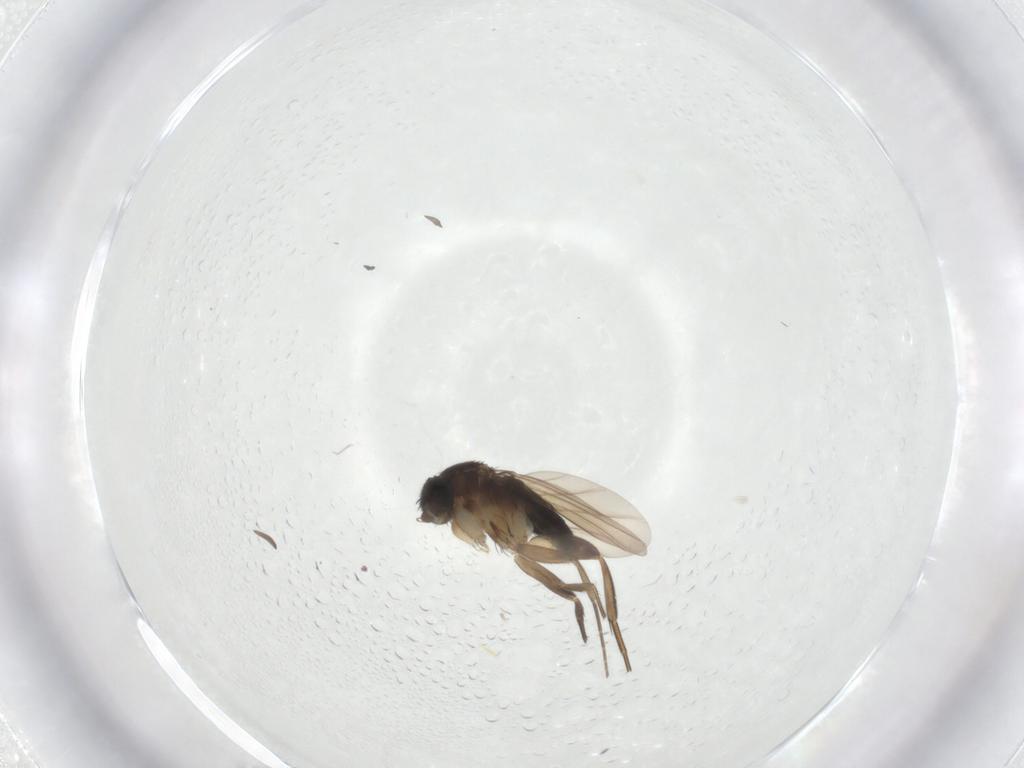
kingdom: Animalia
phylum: Arthropoda
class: Insecta
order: Diptera
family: Phoridae
